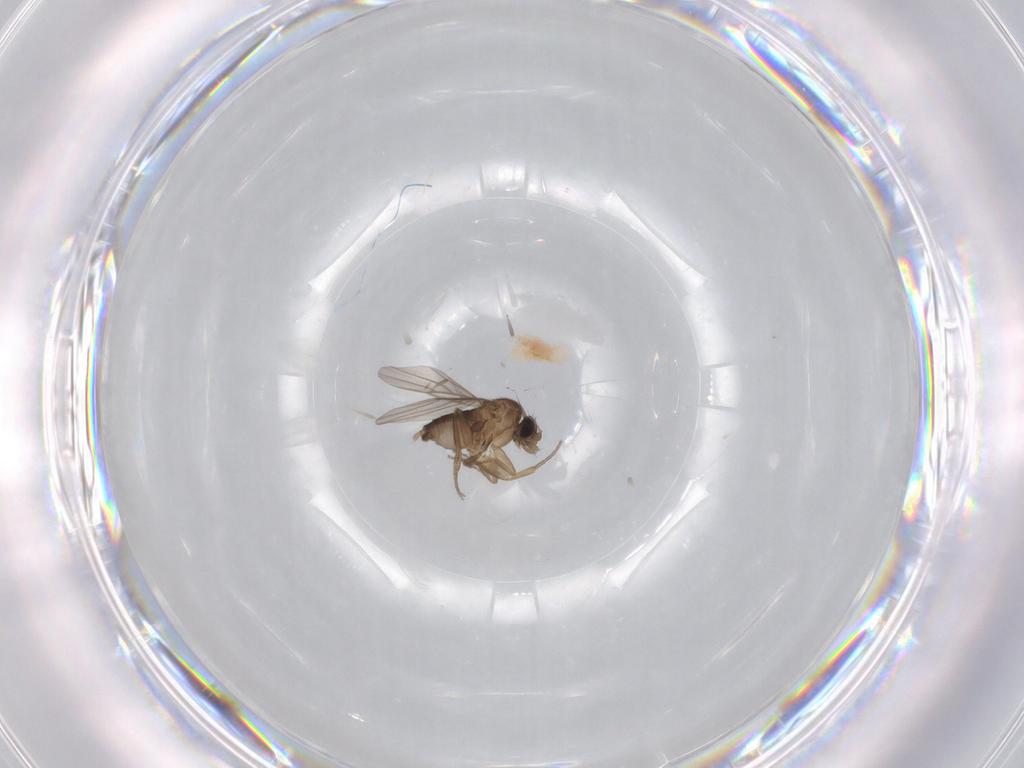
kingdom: Animalia
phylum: Arthropoda
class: Insecta
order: Diptera
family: Phoridae
